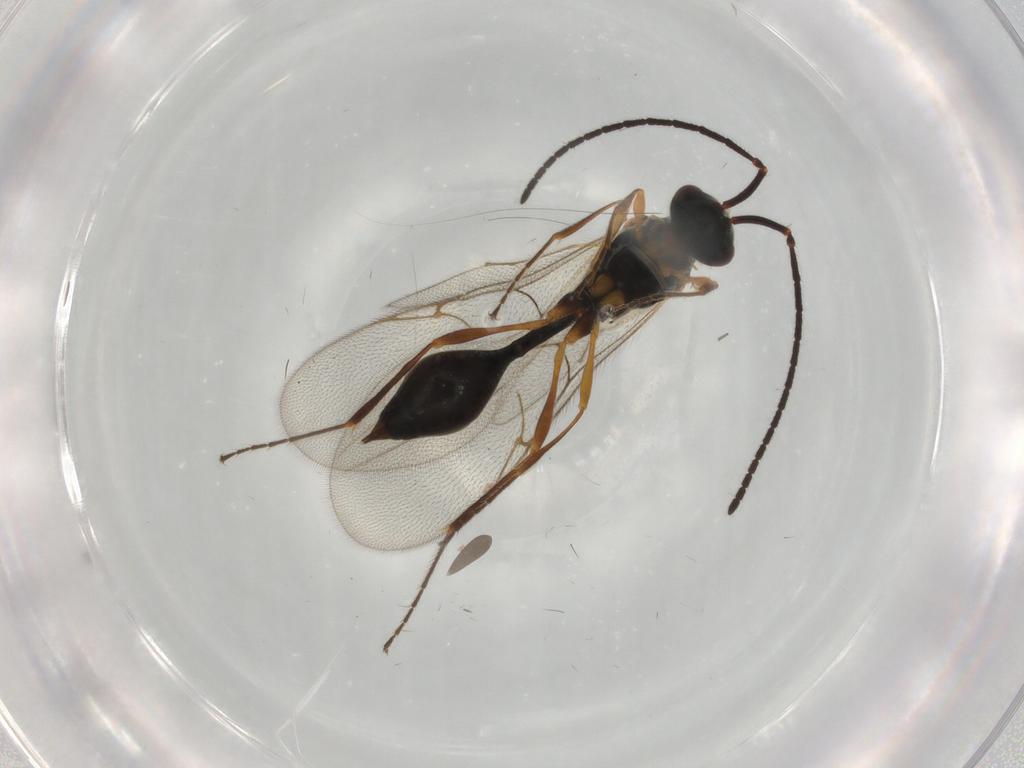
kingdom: Animalia
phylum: Arthropoda
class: Insecta
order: Hymenoptera
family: Diapriidae
